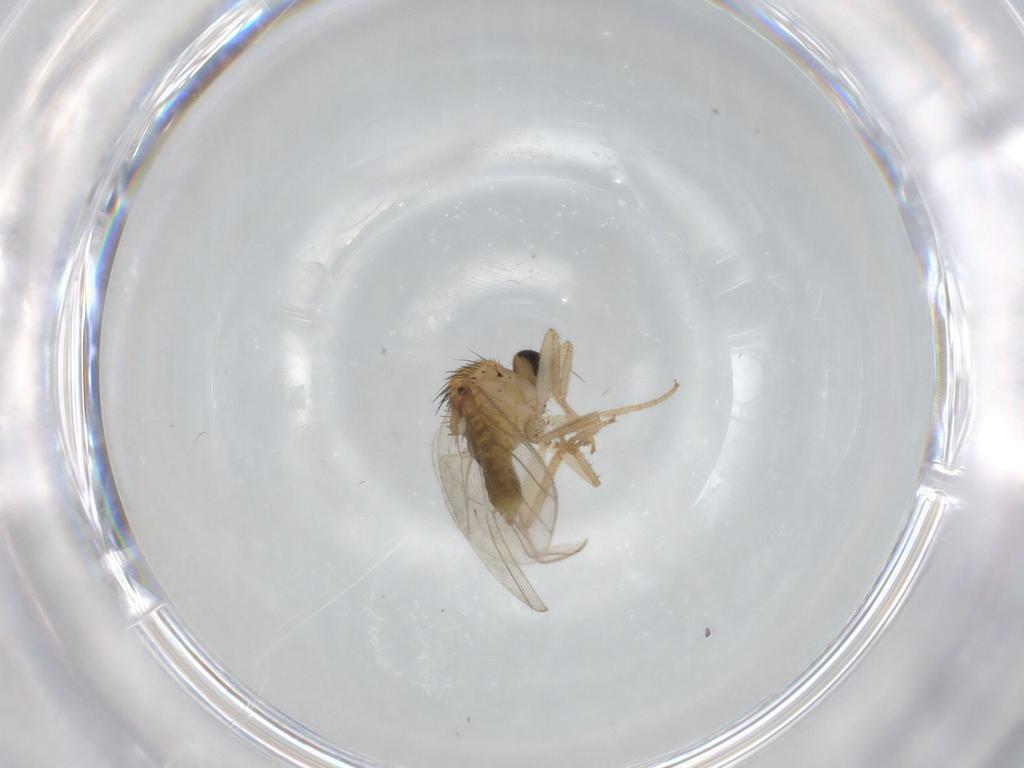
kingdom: Animalia
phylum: Arthropoda
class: Insecta
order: Diptera
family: Hybotidae
